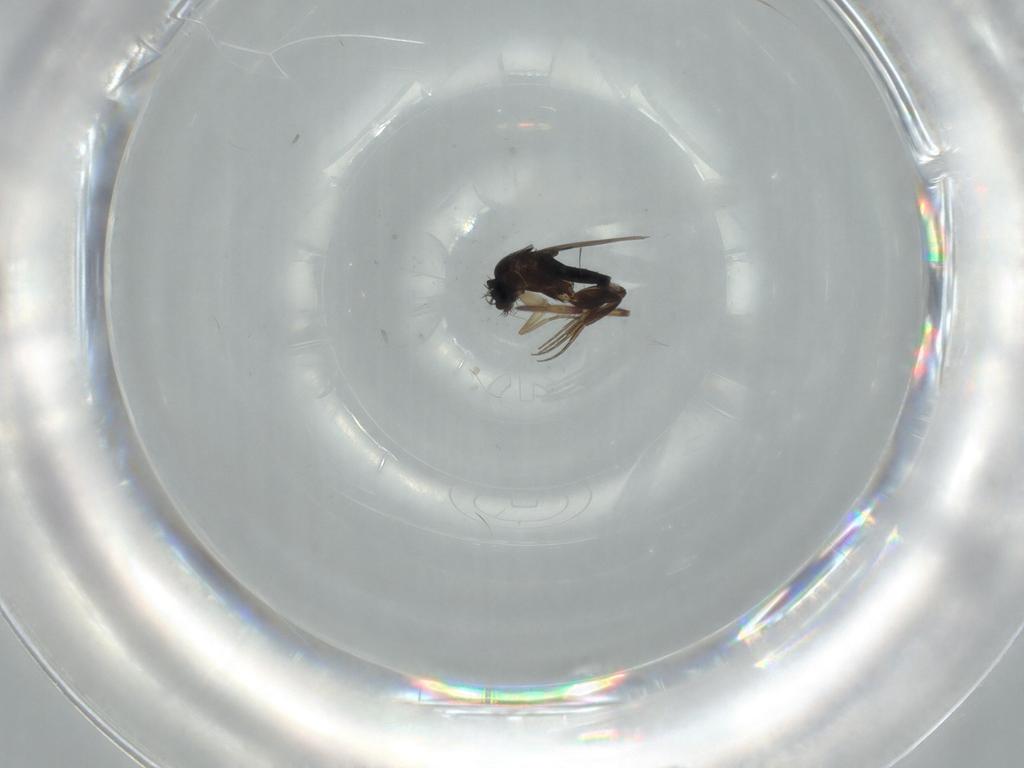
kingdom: Animalia
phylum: Arthropoda
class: Insecta
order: Diptera
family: Phoridae
